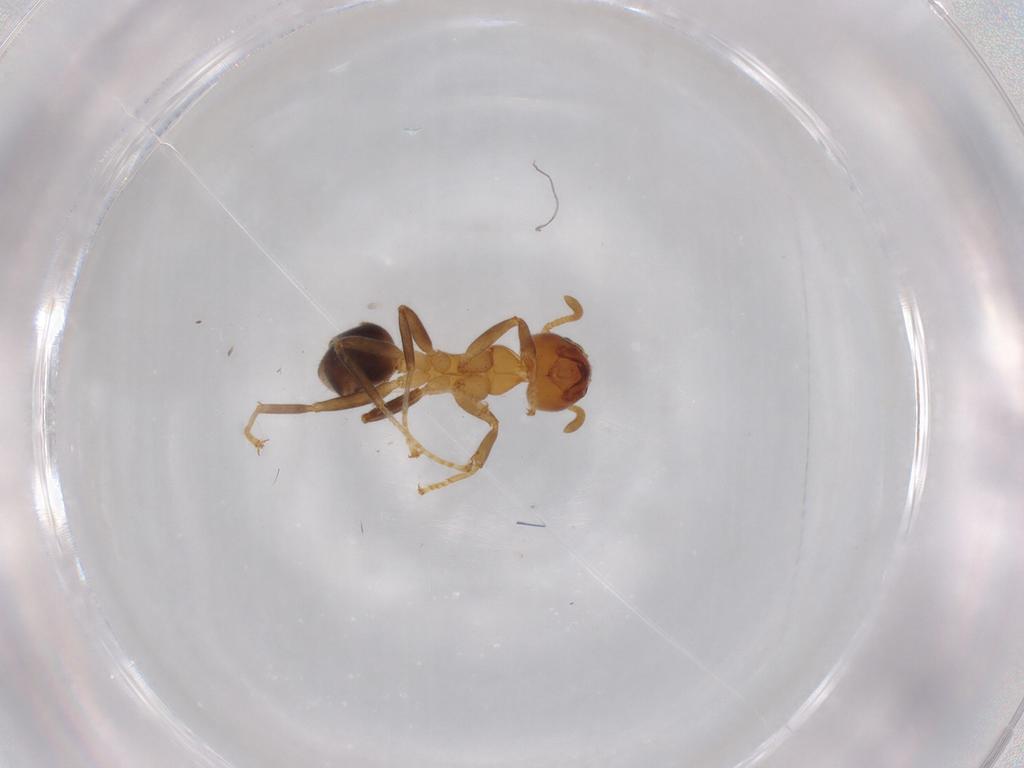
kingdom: Animalia
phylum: Arthropoda
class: Insecta
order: Hymenoptera
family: Formicidae
